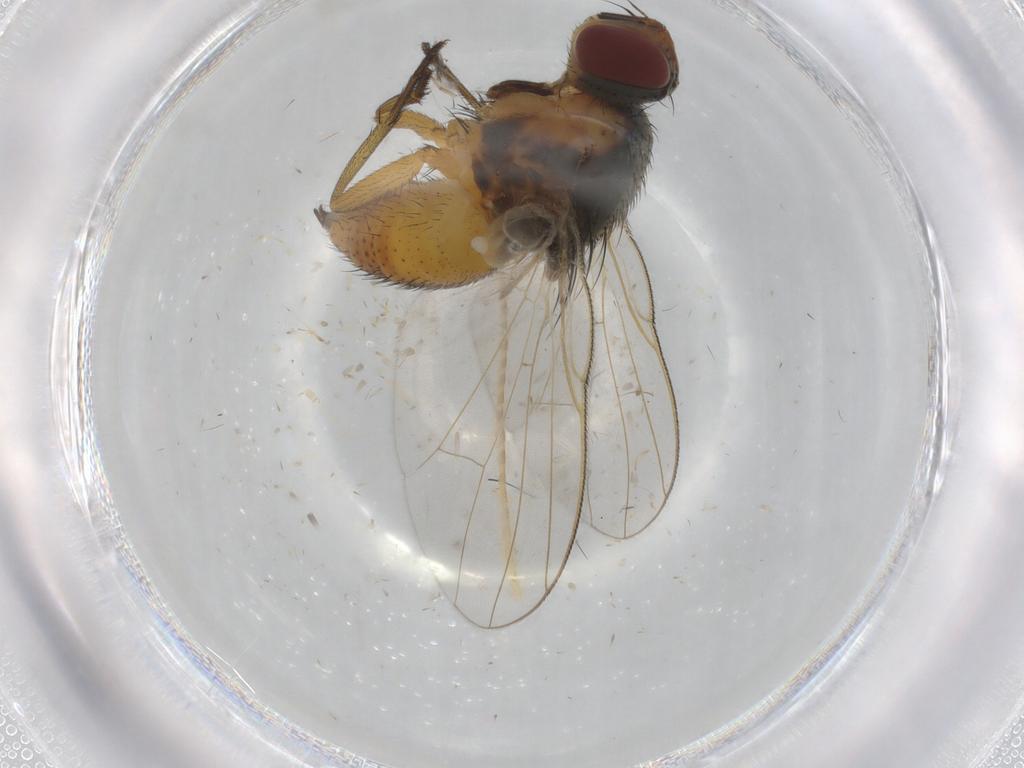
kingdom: Animalia
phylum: Arthropoda
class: Insecta
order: Diptera
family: Muscidae
